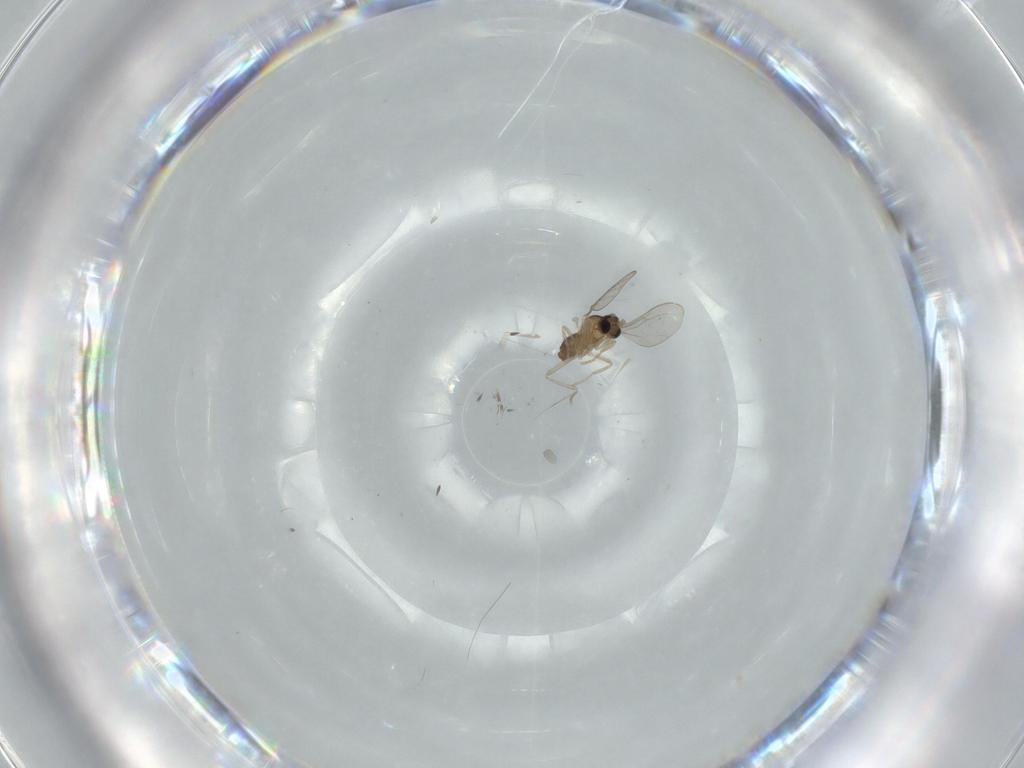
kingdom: Animalia
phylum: Arthropoda
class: Insecta
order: Diptera
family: Cecidomyiidae
